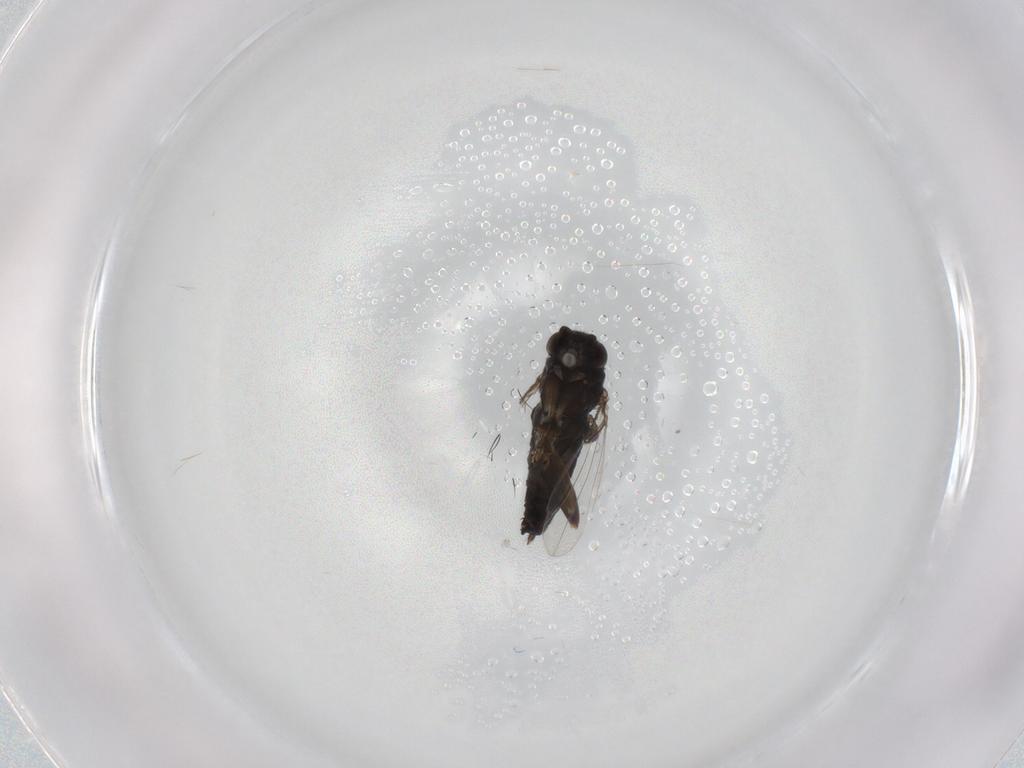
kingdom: Animalia
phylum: Arthropoda
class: Insecta
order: Diptera
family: Phoridae
